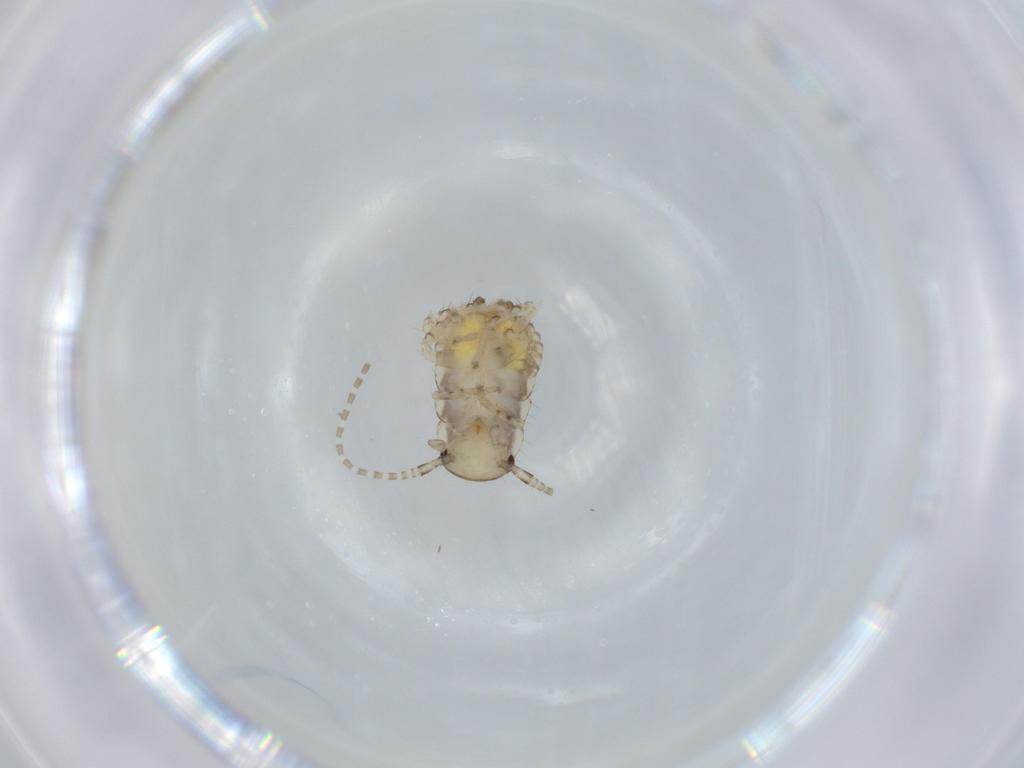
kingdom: Animalia
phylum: Arthropoda
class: Insecta
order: Blattodea
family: Ectobiidae
